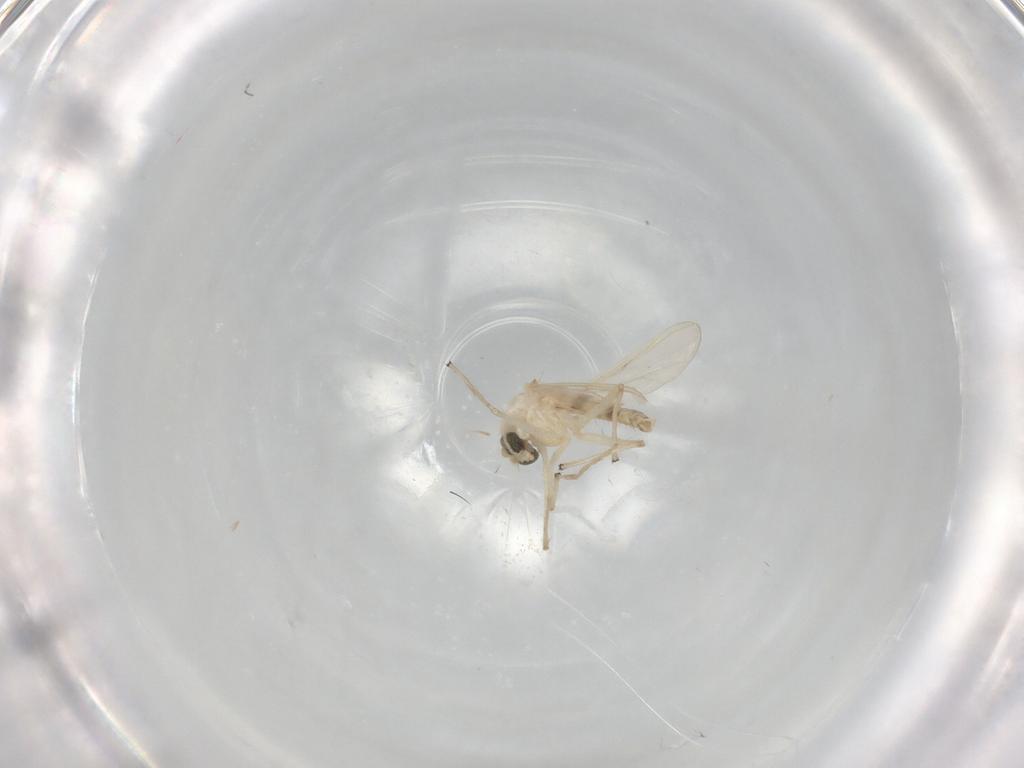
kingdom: Animalia
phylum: Arthropoda
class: Insecta
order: Diptera
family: Chironomidae
